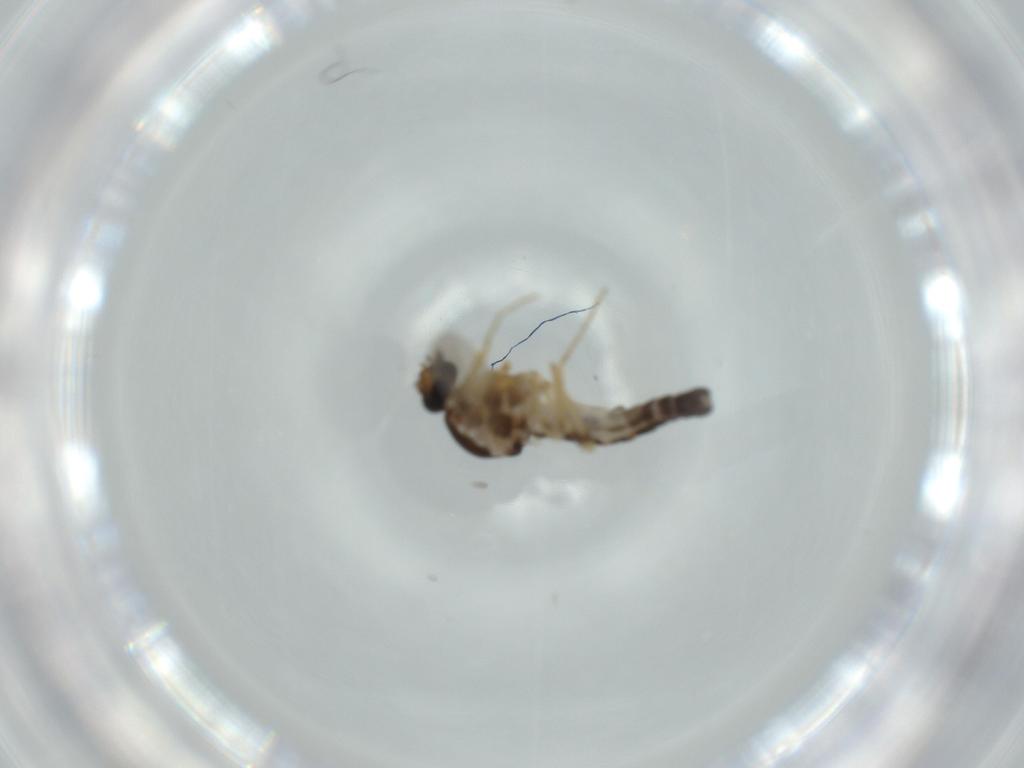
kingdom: Animalia
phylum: Arthropoda
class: Insecta
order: Diptera
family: Ceratopogonidae
